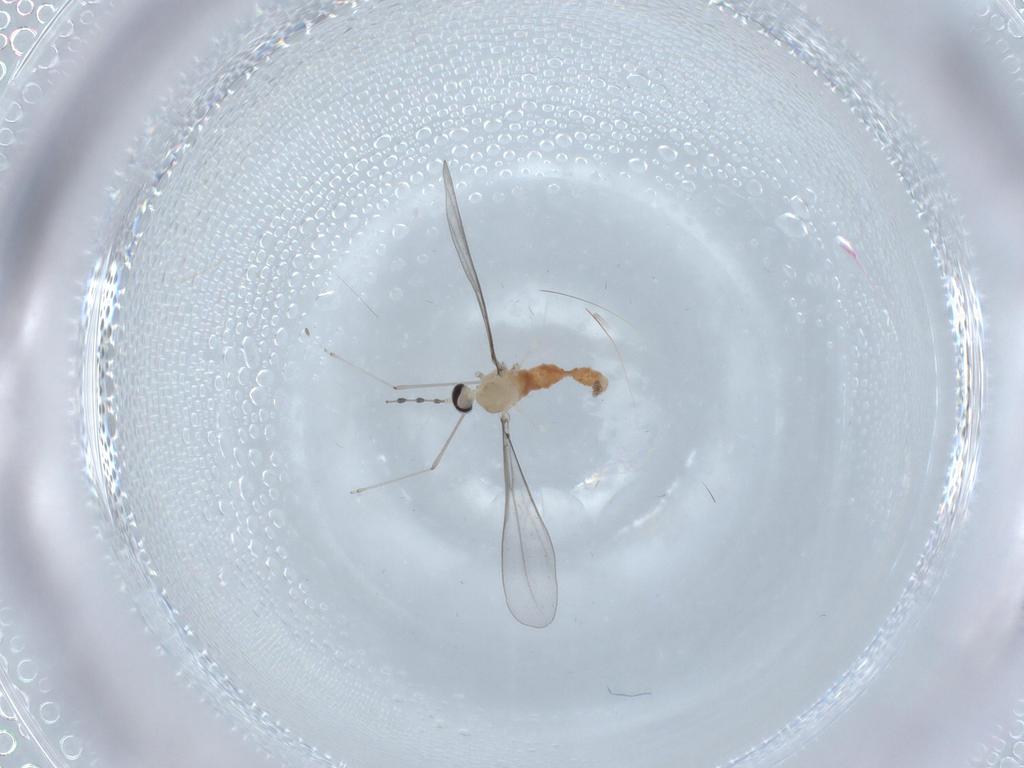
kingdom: Animalia
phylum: Arthropoda
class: Insecta
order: Diptera
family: Cecidomyiidae
